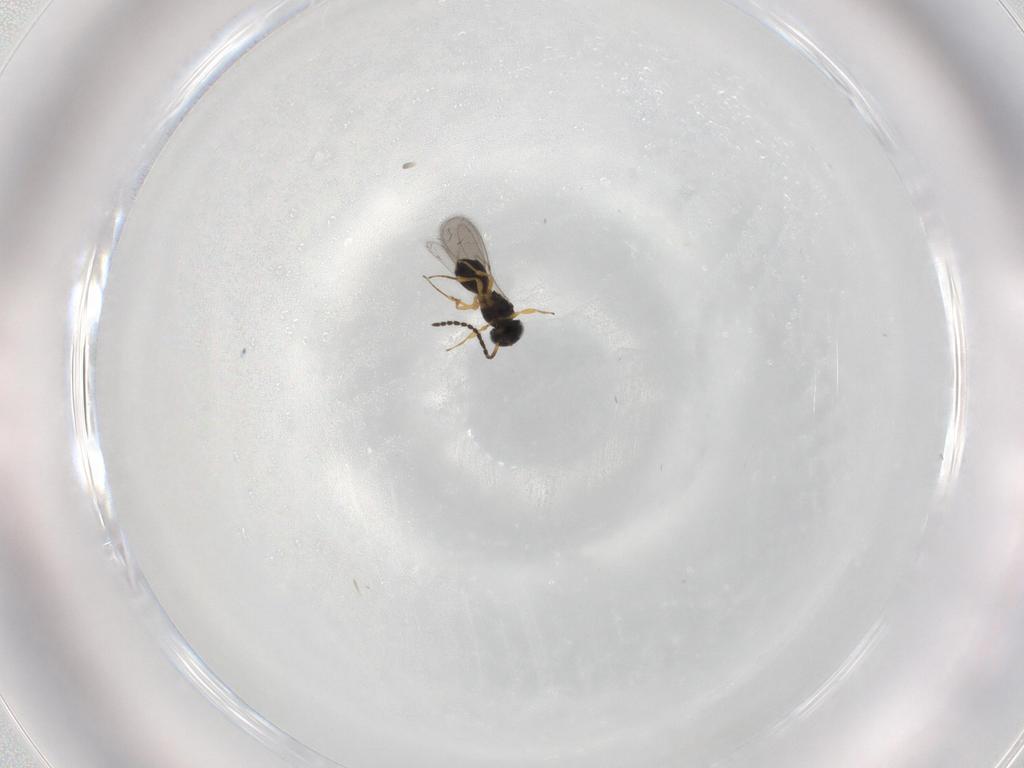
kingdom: Animalia
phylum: Arthropoda
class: Insecta
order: Hymenoptera
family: Scelionidae
